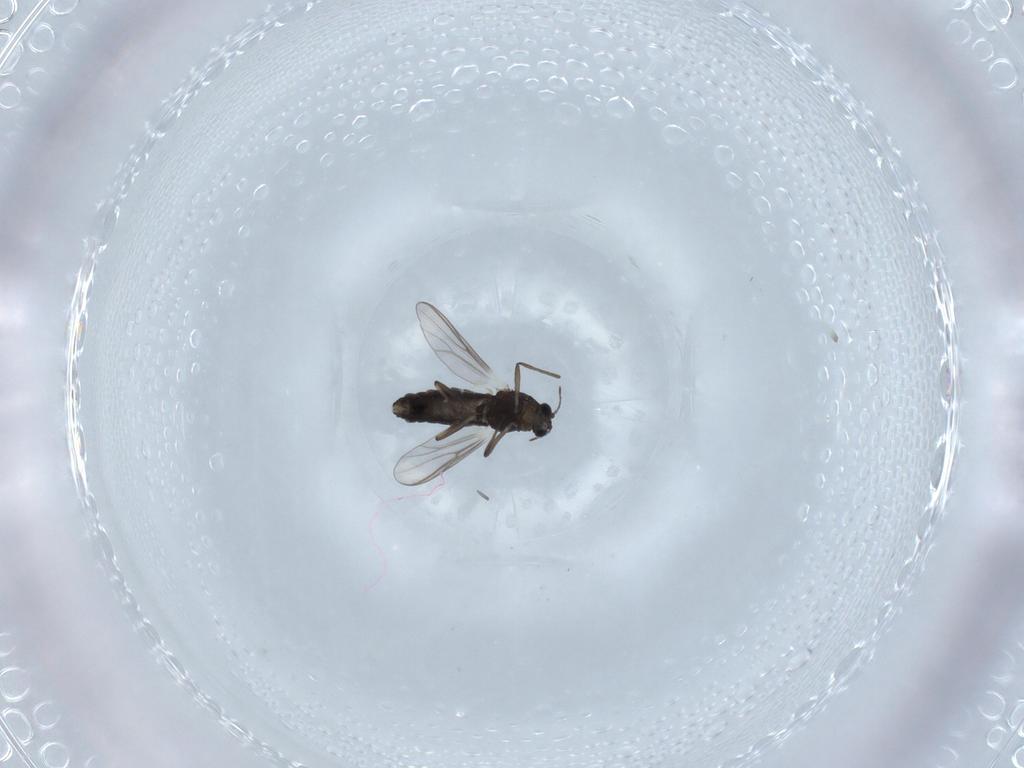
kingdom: Animalia
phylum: Arthropoda
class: Insecta
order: Diptera
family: Anthomyiidae
